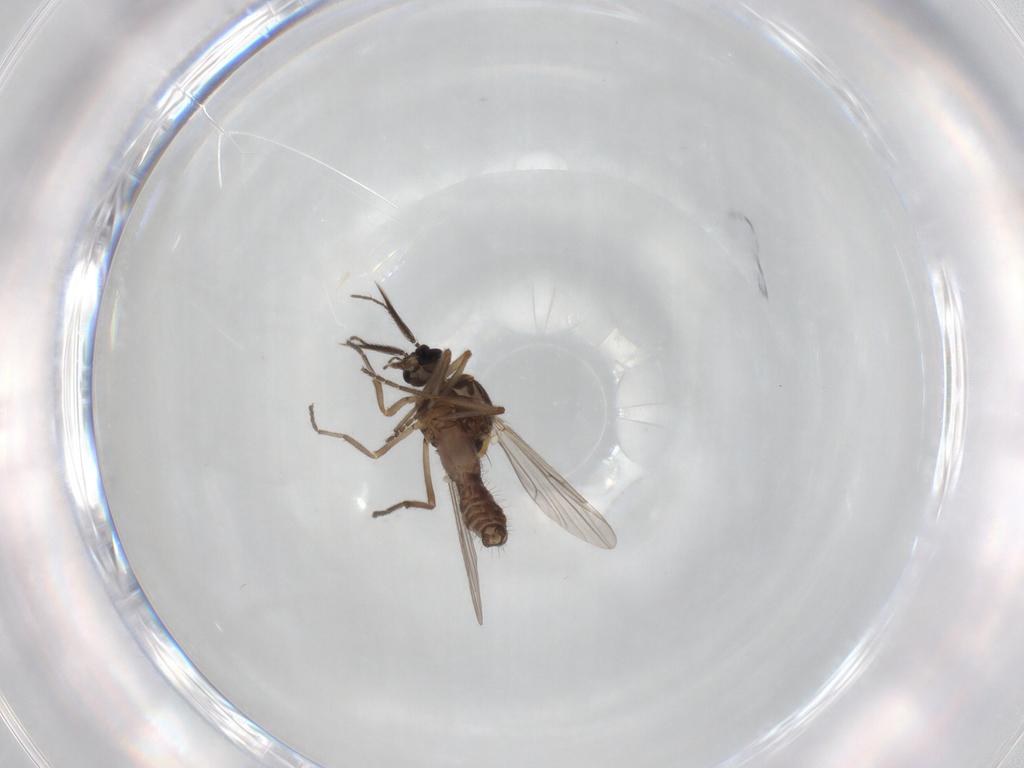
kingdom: Animalia
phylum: Arthropoda
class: Insecta
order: Diptera
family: Ceratopogonidae
